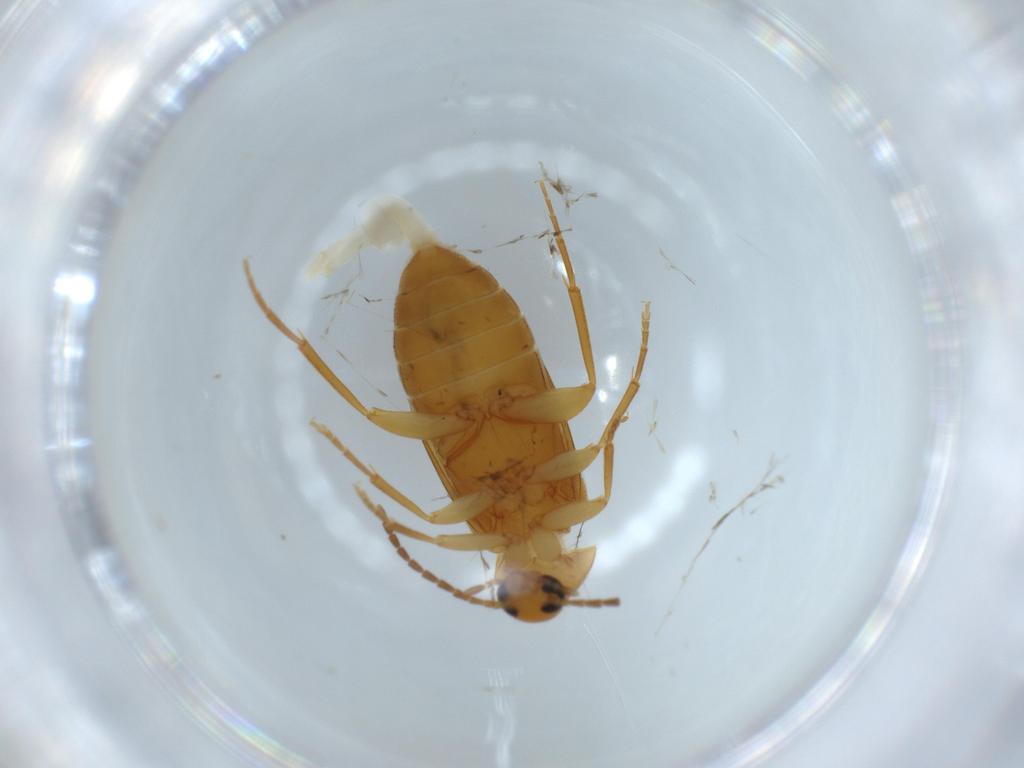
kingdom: Animalia
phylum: Arthropoda
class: Insecta
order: Coleoptera
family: Scraptiidae
